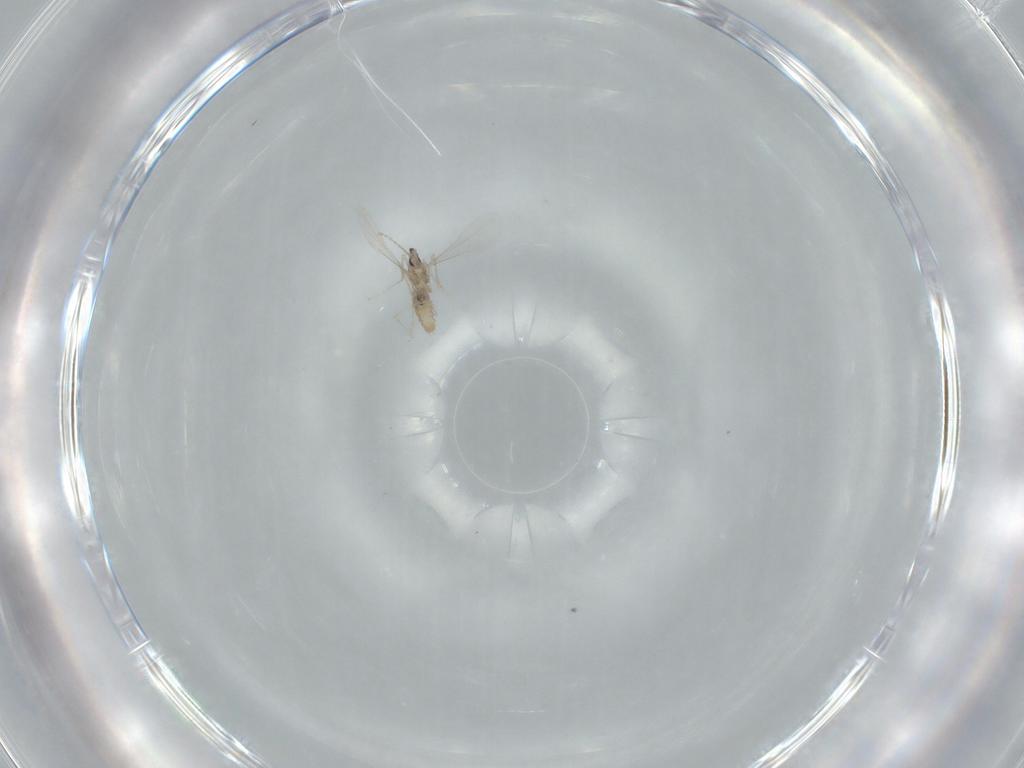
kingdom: Animalia
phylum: Arthropoda
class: Insecta
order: Diptera
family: Cecidomyiidae
